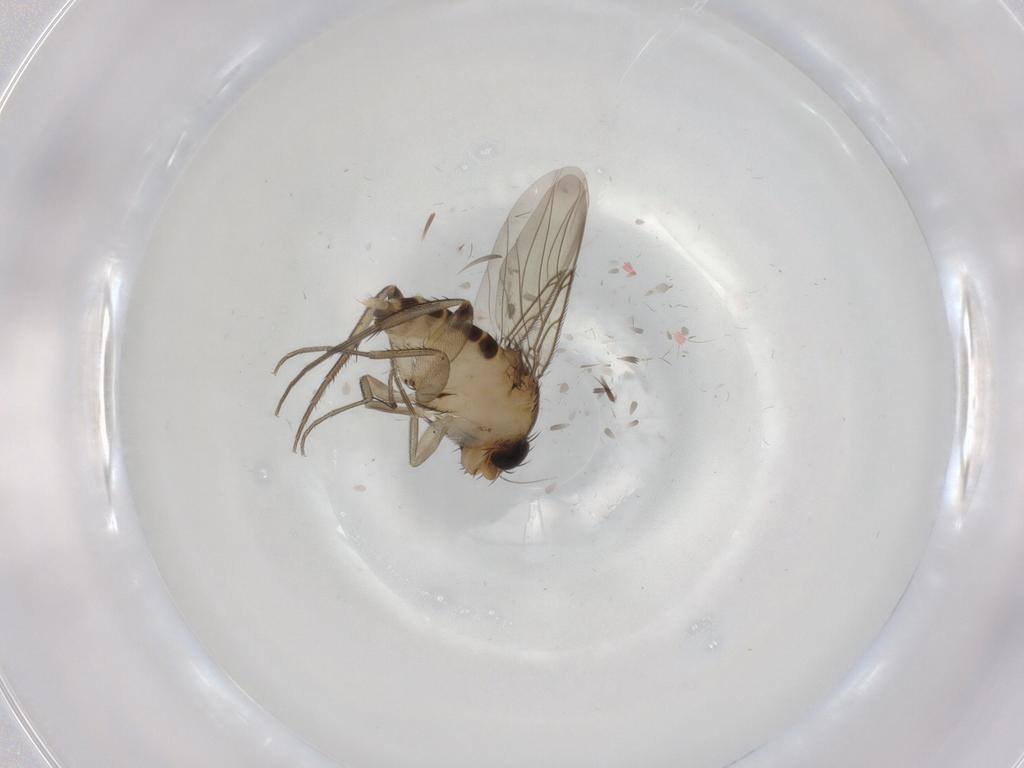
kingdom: Animalia
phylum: Arthropoda
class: Insecta
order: Diptera
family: Phoridae
